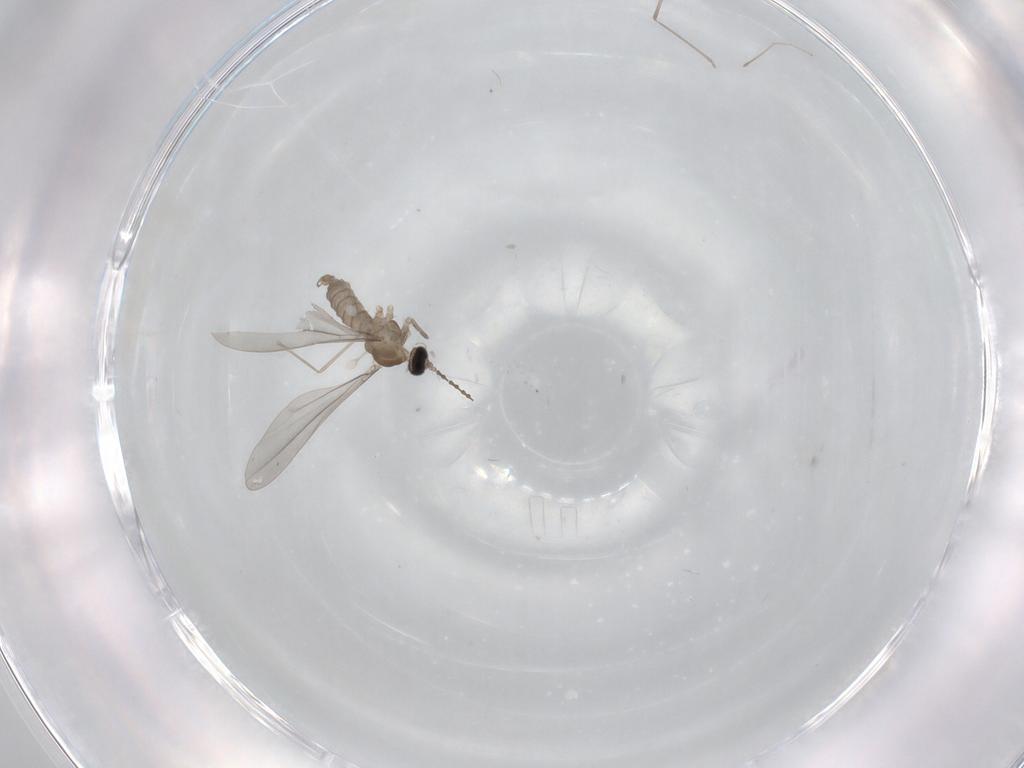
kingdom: Animalia
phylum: Arthropoda
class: Insecta
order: Diptera
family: Cecidomyiidae
